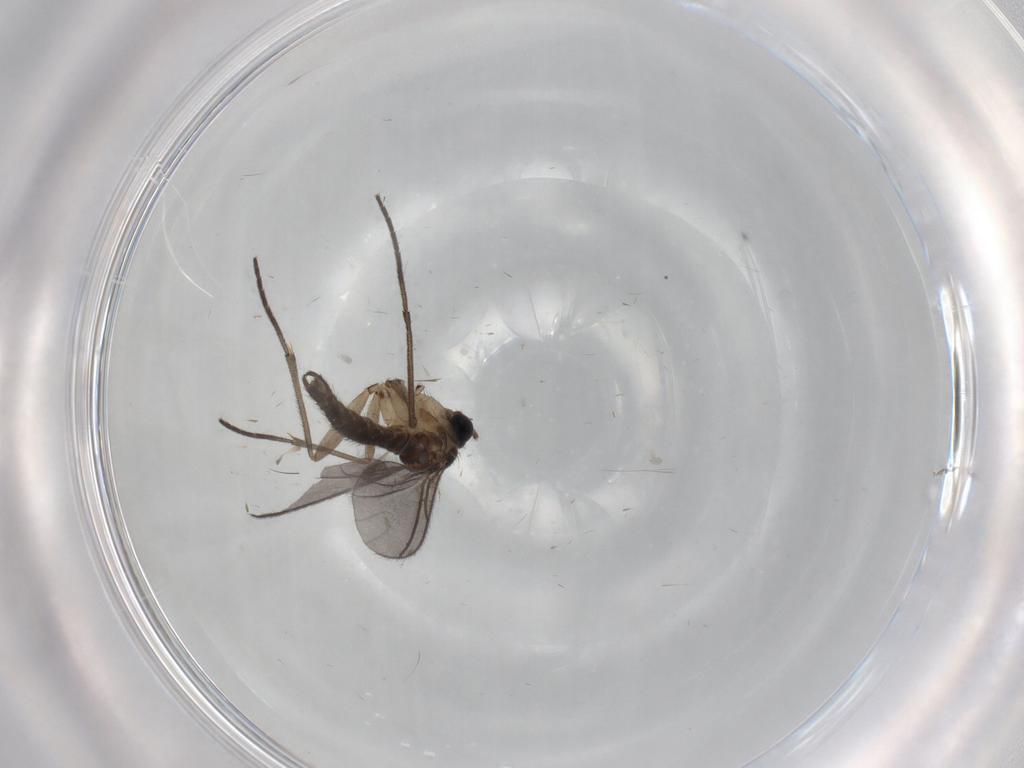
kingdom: Animalia
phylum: Arthropoda
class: Insecta
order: Diptera
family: Sciaridae
